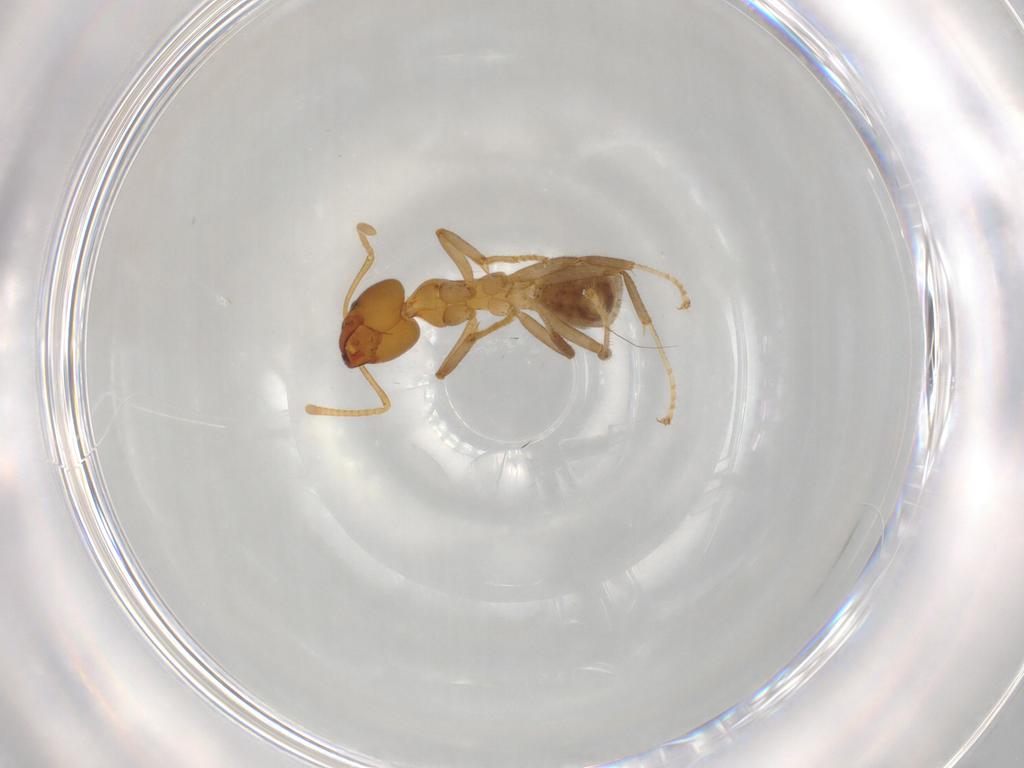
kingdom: Animalia
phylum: Arthropoda
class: Insecta
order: Hymenoptera
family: Formicidae
